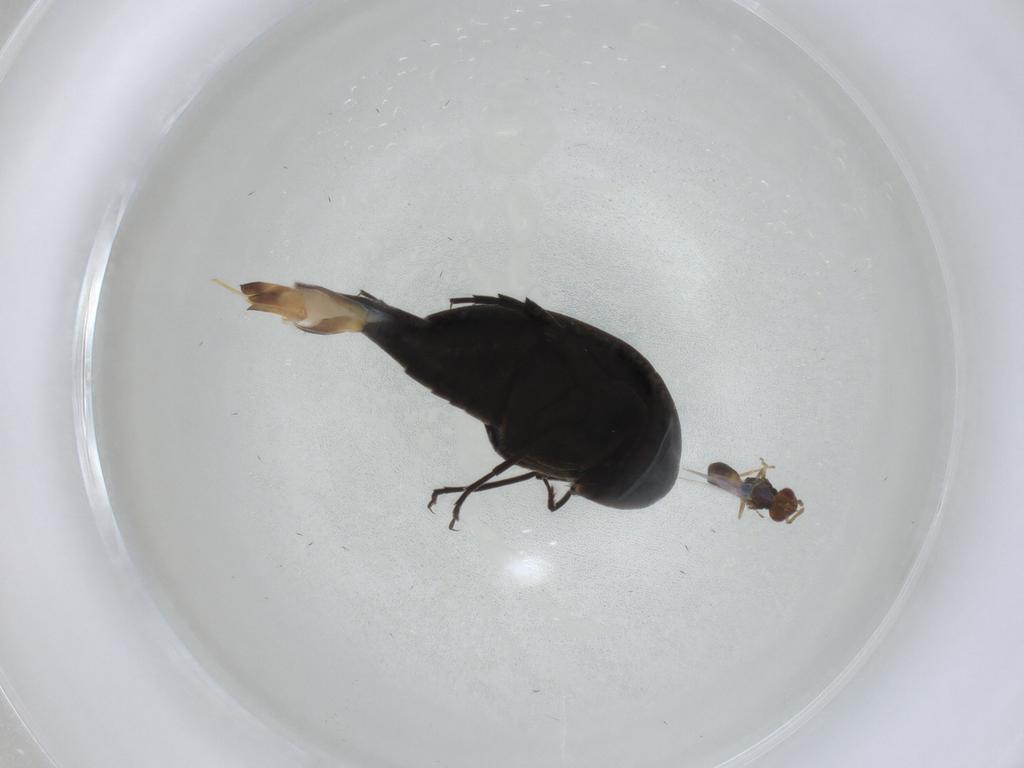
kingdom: Animalia
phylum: Arthropoda
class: Insecta
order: Coleoptera
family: Mordellidae
